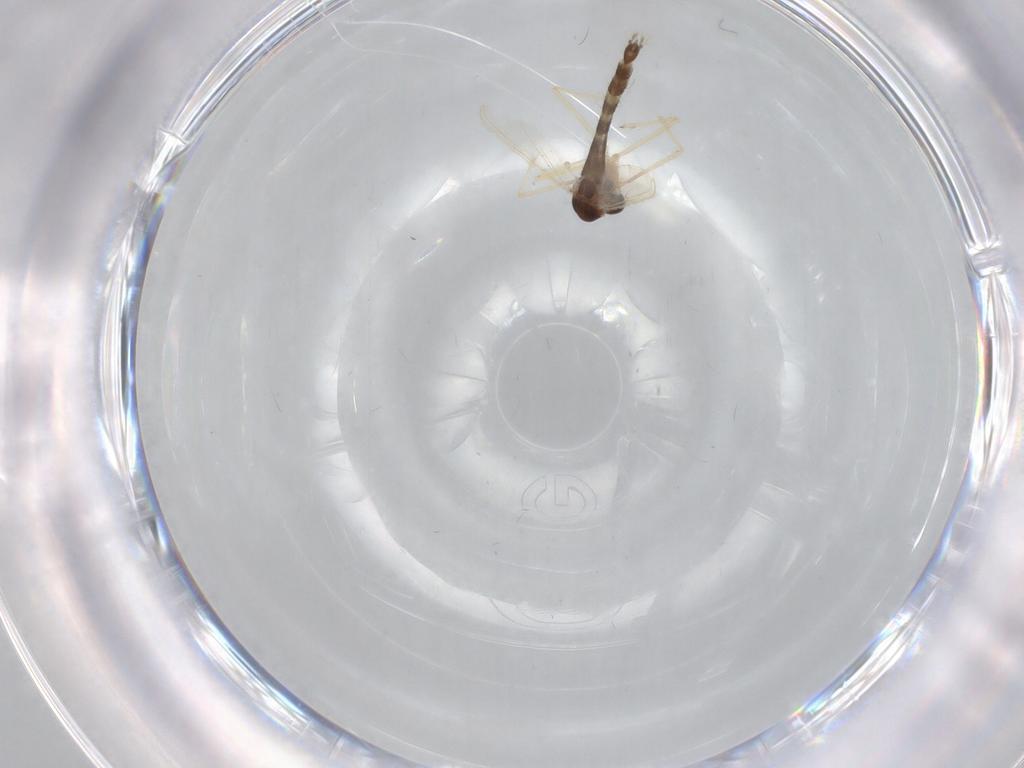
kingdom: Animalia
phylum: Arthropoda
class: Insecta
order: Diptera
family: Chironomidae
